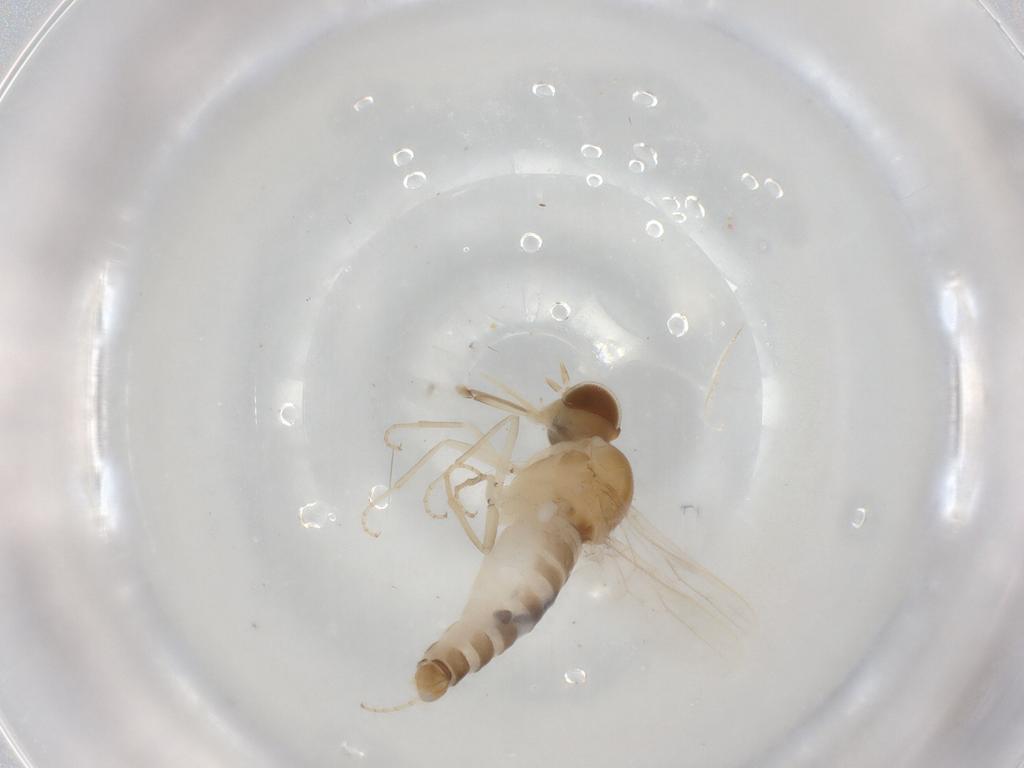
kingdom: Animalia
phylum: Arthropoda
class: Insecta
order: Diptera
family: Scenopinidae
